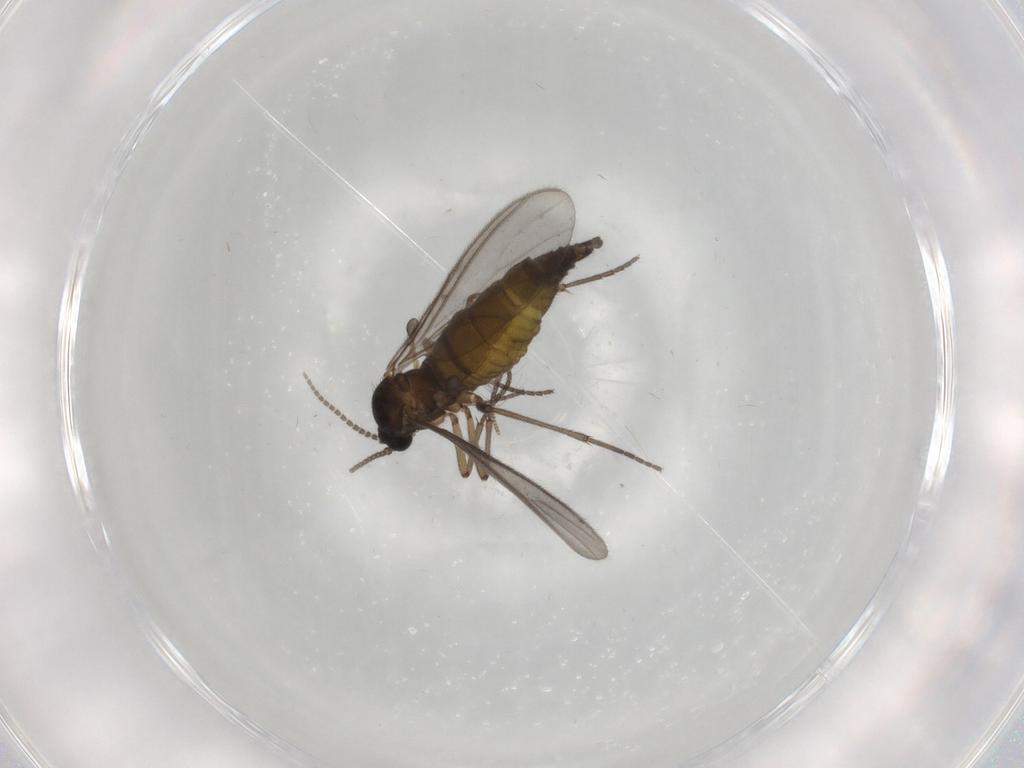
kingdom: Animalia
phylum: Arthropoda
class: Insecta
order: Diptera
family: Sciaridae
